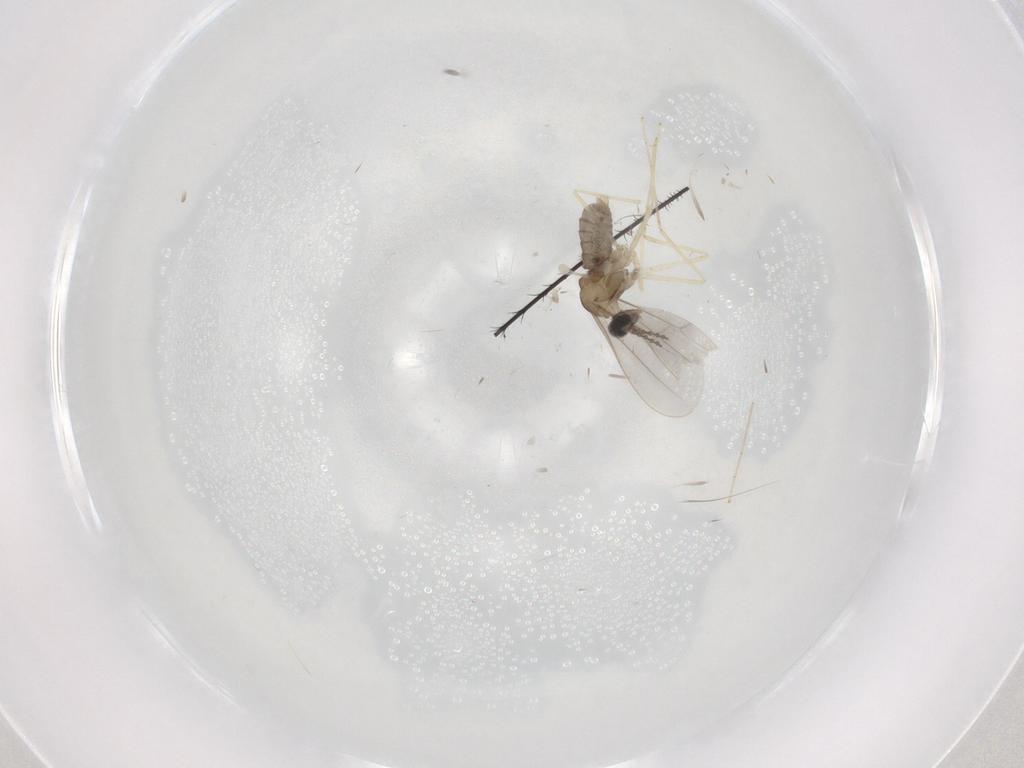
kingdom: Animalia
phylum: Arthropoda
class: Insecta
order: Diptera
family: Cecidomyiidae
